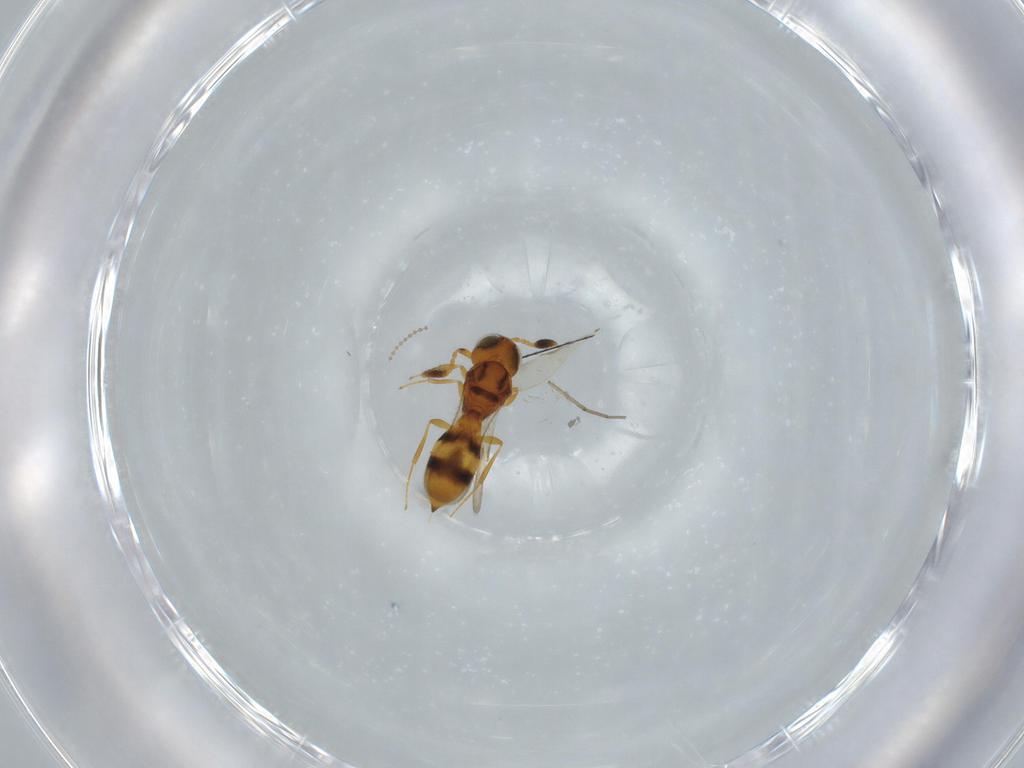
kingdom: Animalia
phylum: Arthropoda
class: Insecta
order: Hymenoptera
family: Scelionidae
